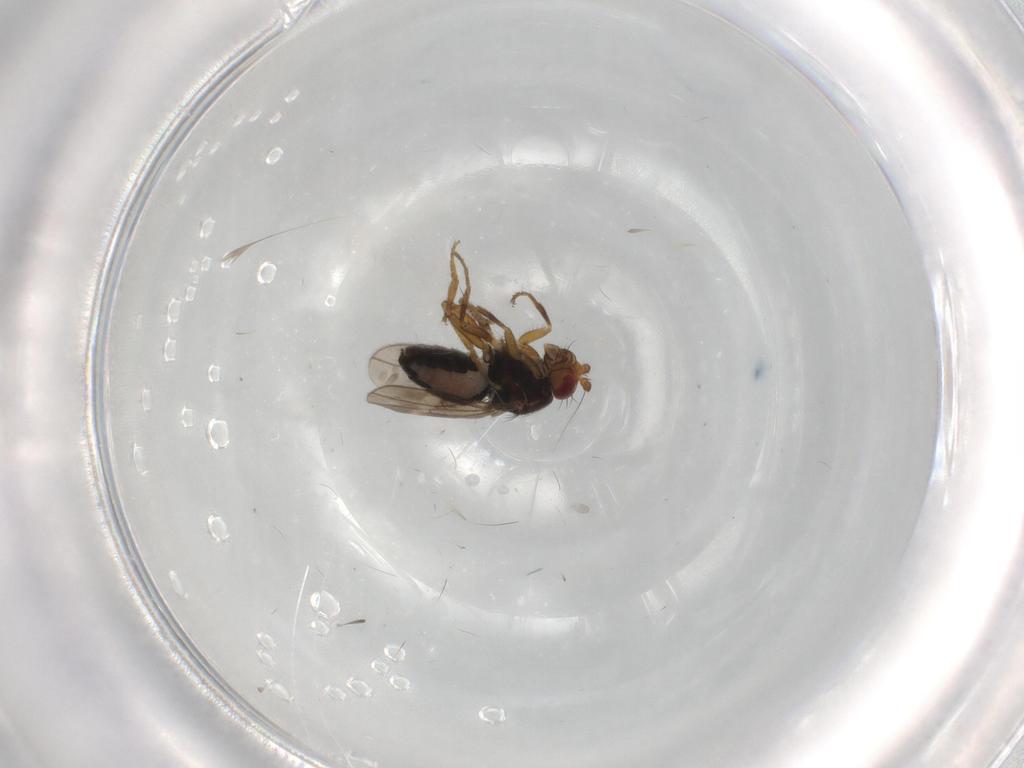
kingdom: Animalia
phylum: Arthropoda
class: Insecta
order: Diptera
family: Sphaeroceridae
